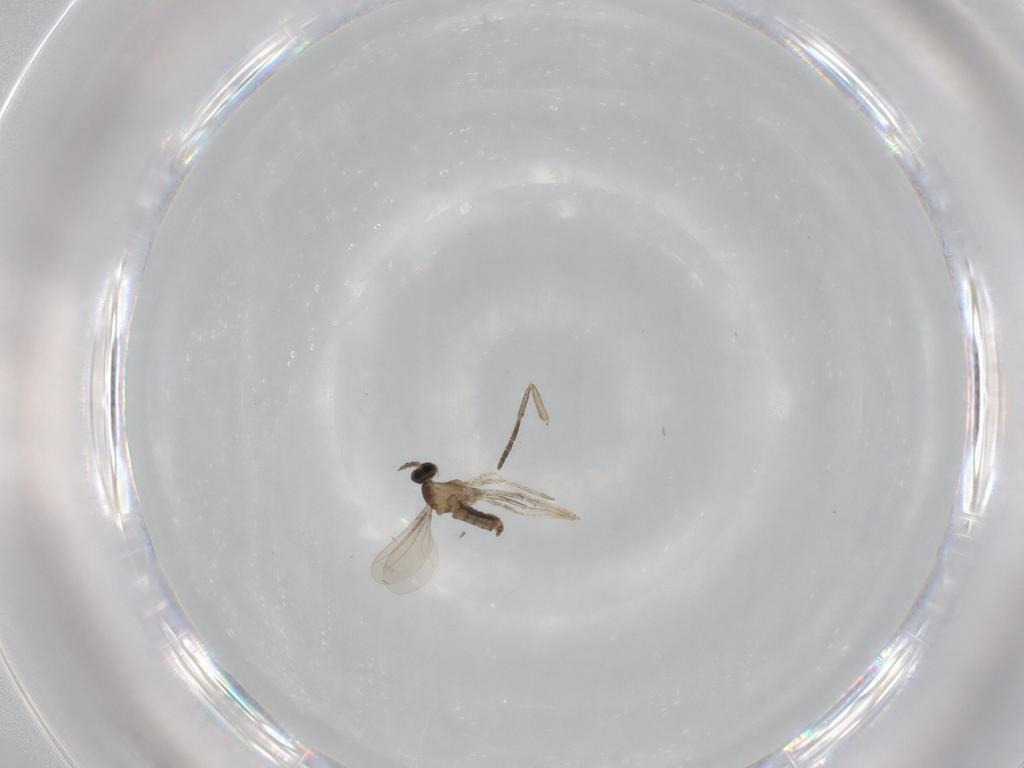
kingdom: Animalia
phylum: Arthropoda
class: Insecta
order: Diptera
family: Psychodidae
